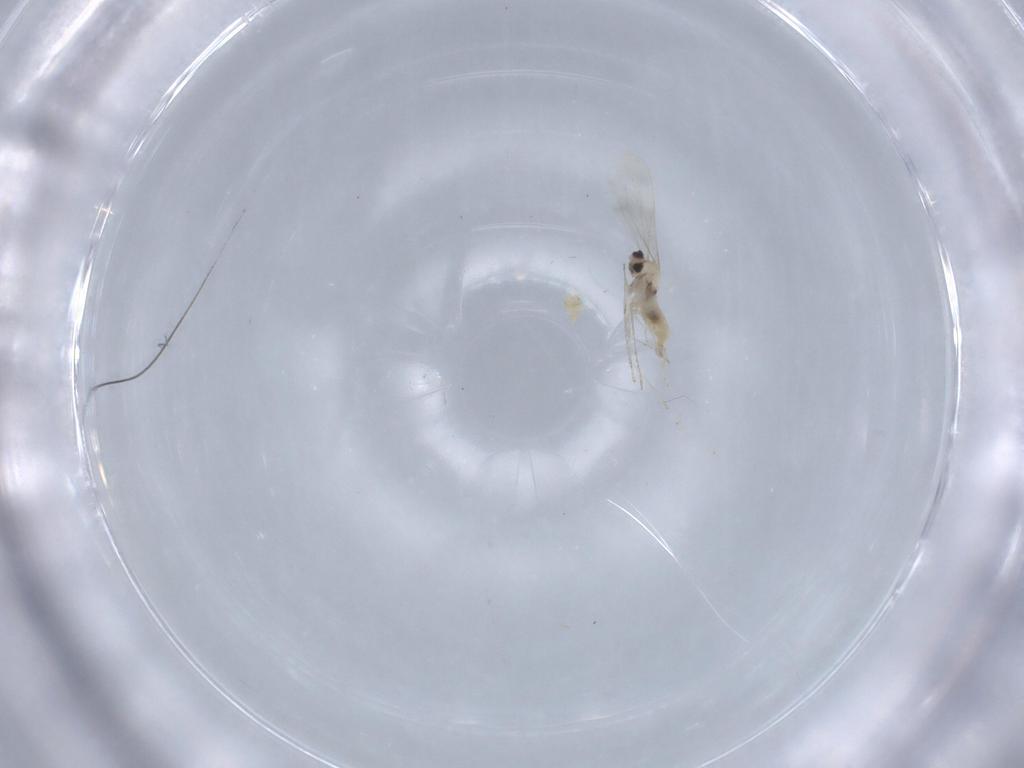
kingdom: Animalia
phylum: Arthropoda
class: Insecta
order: Diptera
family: Cecidomyiidae
